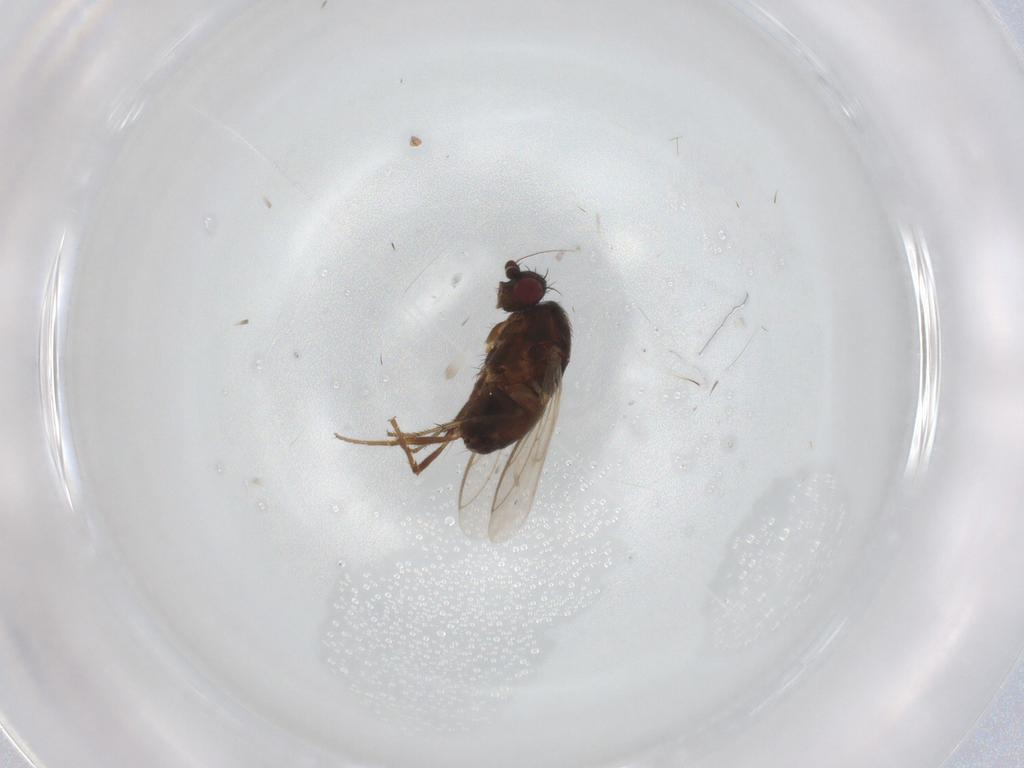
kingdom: Animalia
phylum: Arthropoda
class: Insecta
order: Diptera
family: Sphaeroceridae
